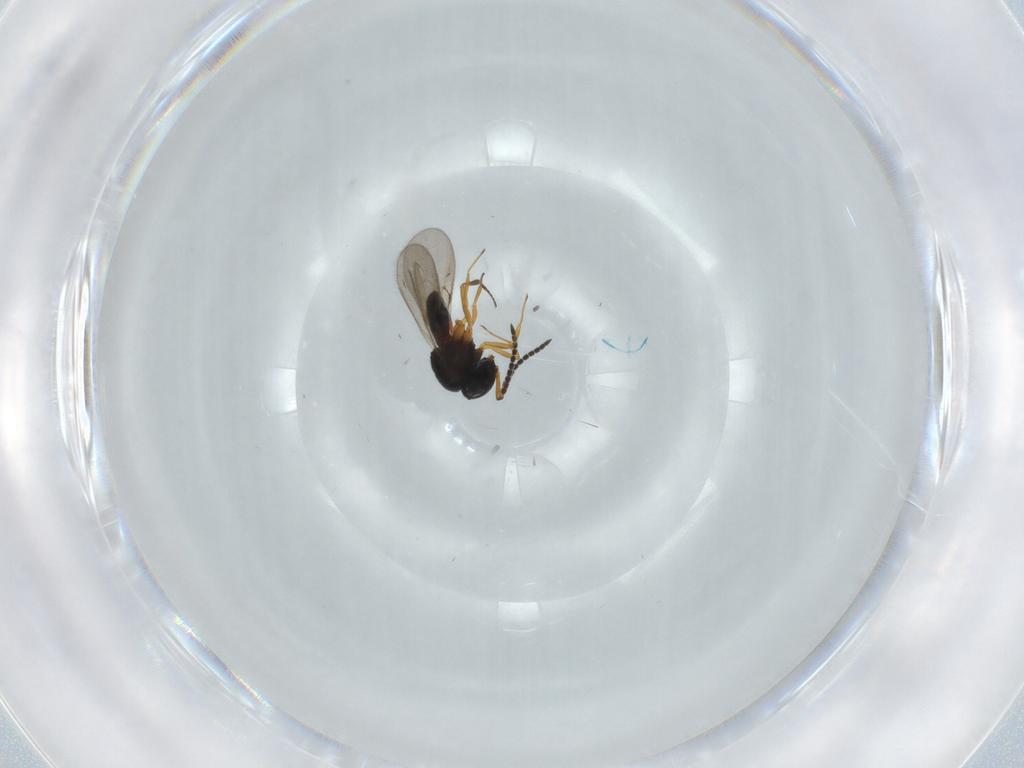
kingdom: Animalia
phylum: Arthropoda
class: Insecta
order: Hymenoptera
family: Scelionidae
